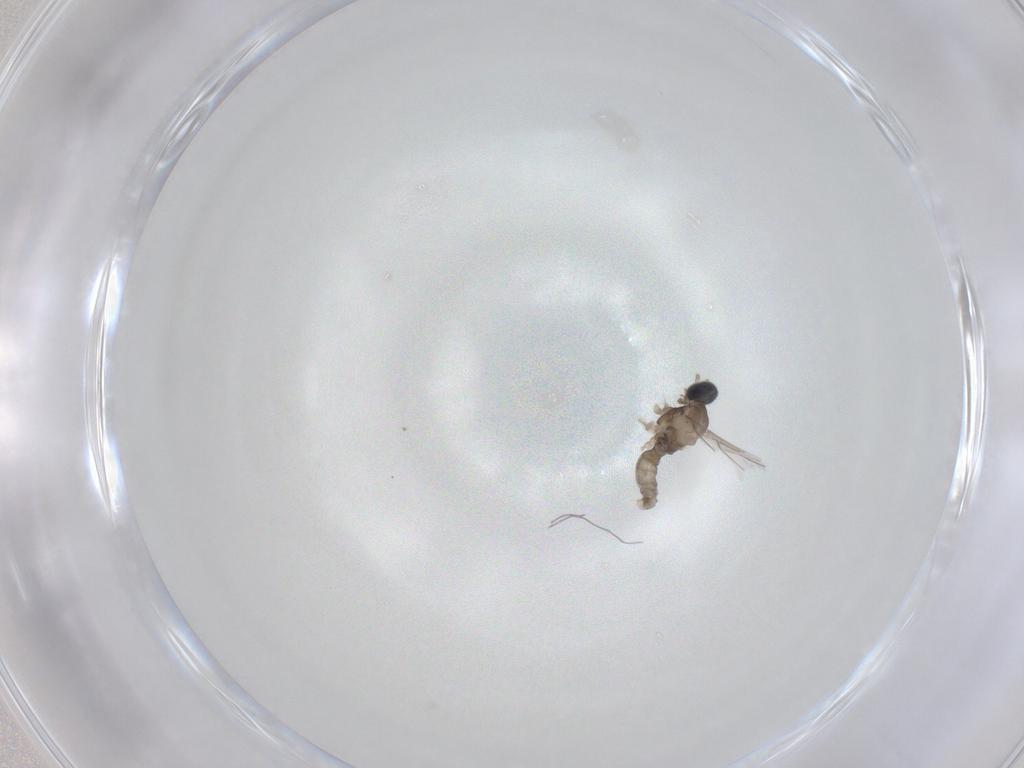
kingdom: Animalia
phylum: Arthropoda
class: Insecta
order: Diptera
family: Cecidomyiidae
